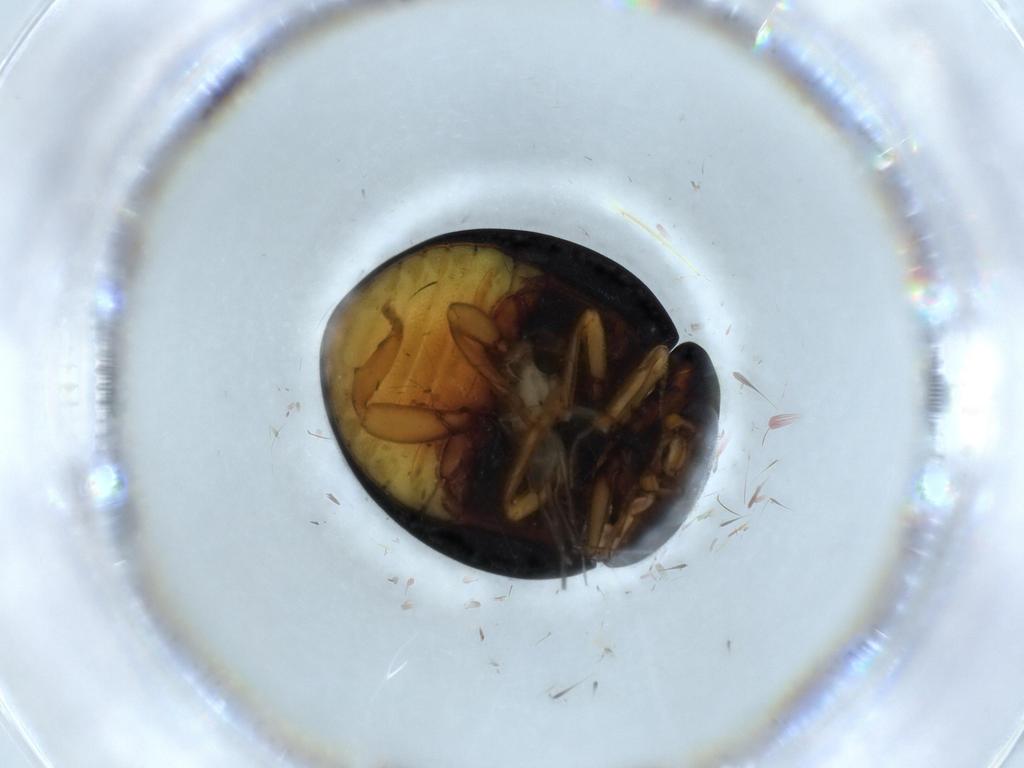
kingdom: Animalia
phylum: Arthropoda
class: Insecta
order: Coleoptera
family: Coccinellidae
